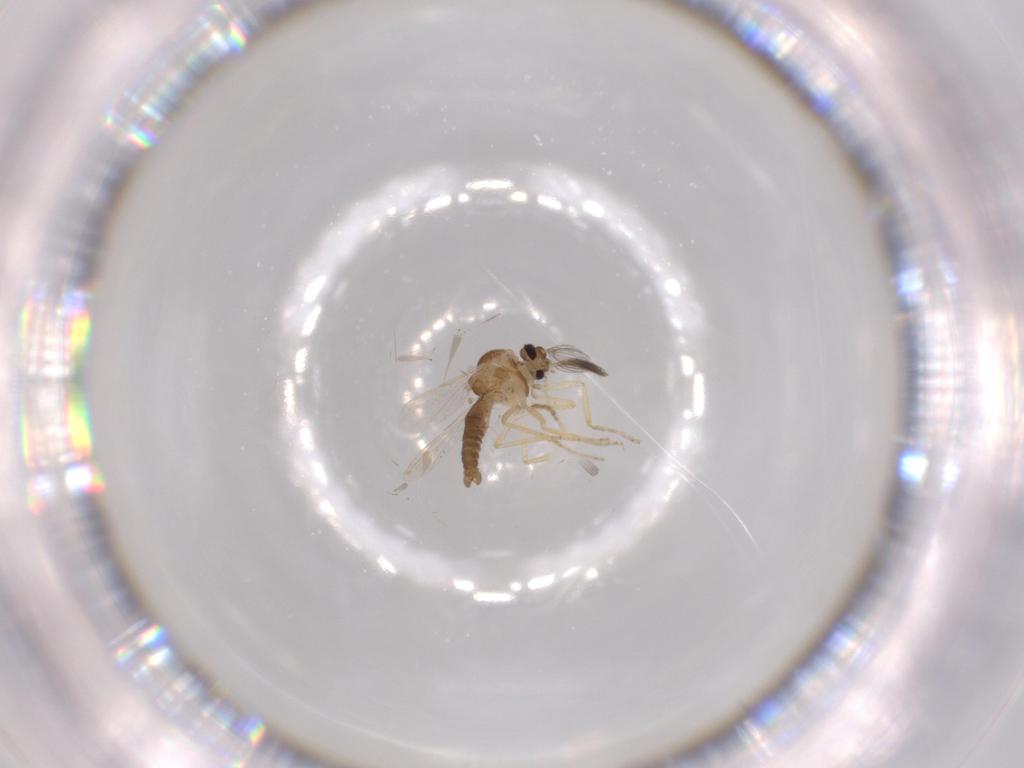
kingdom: Animalia
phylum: Arthropoda
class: Insecta
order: Diptera
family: Ceratopogonidae
